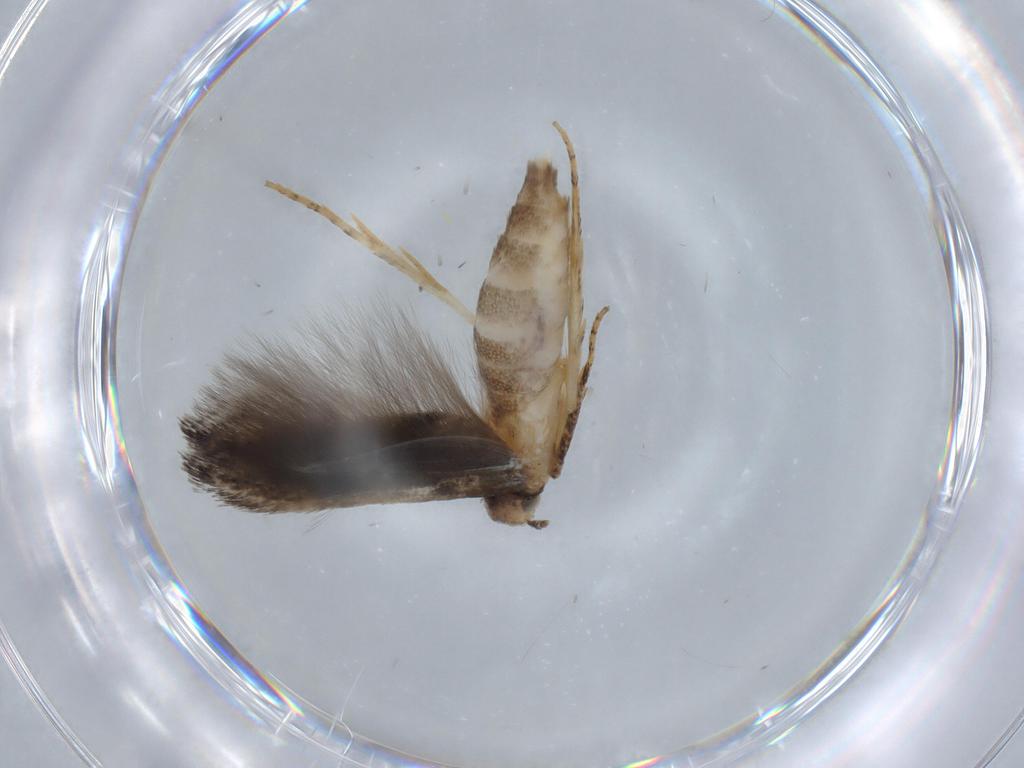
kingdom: Animalia
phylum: Arthropoda
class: Insecta
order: Lepidoptera
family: Cosmopterigidae
